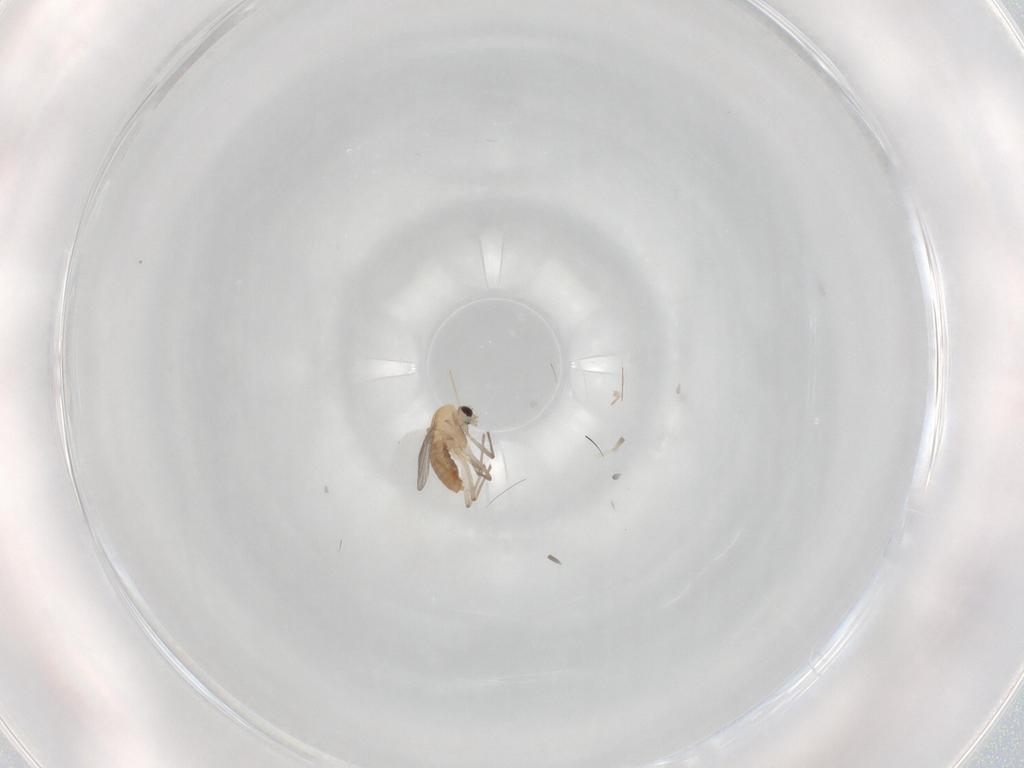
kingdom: Animalia
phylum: Arthropoda
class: Insecta
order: Diptera
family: Chironomidae
